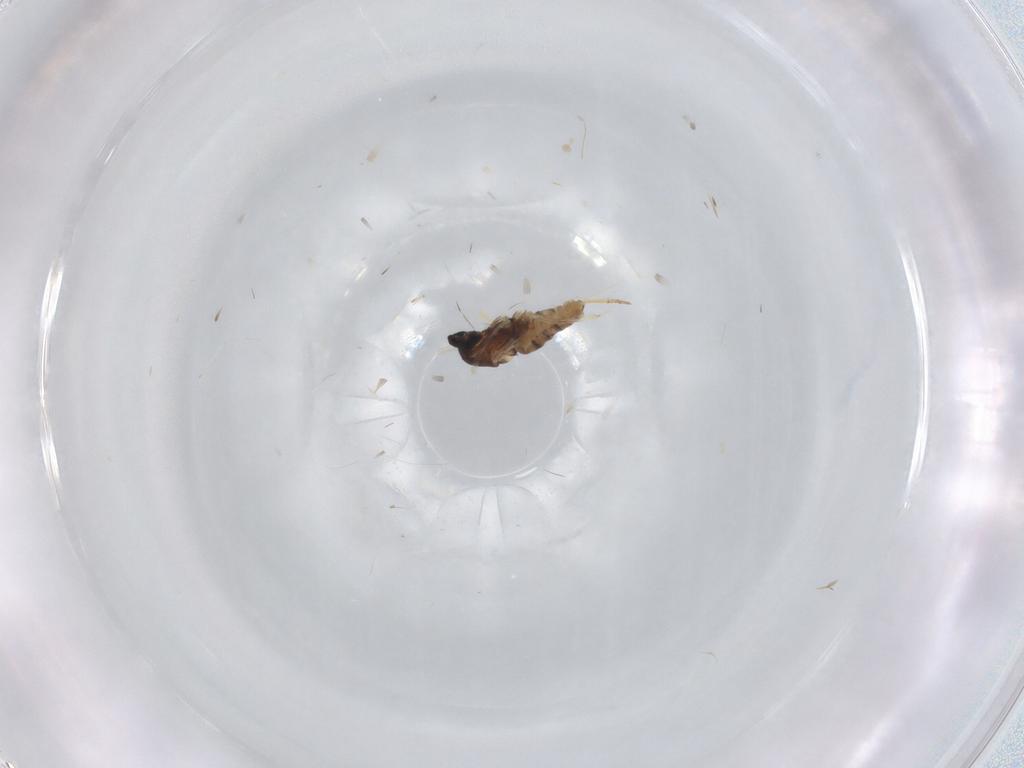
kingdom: Animalia
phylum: Arthropoda
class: Insecta
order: Diptera
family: Cecidomyiidae
